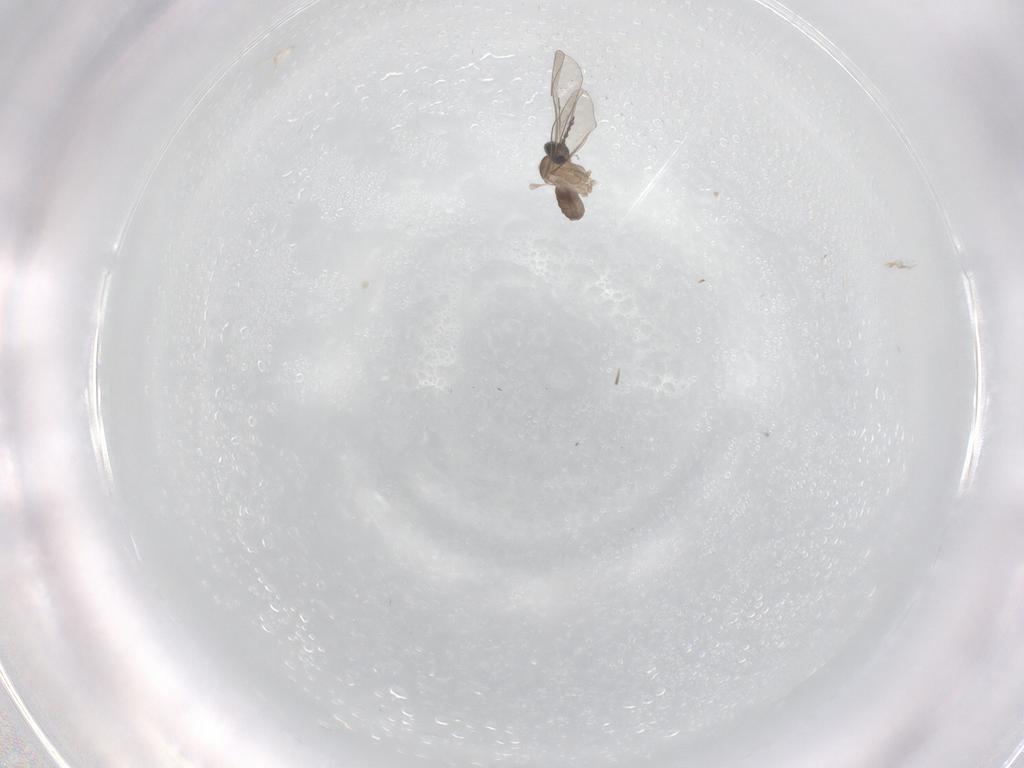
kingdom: Animalia
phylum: Arthropoda
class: Insecta
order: Diptera
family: Cecidomyiidae
